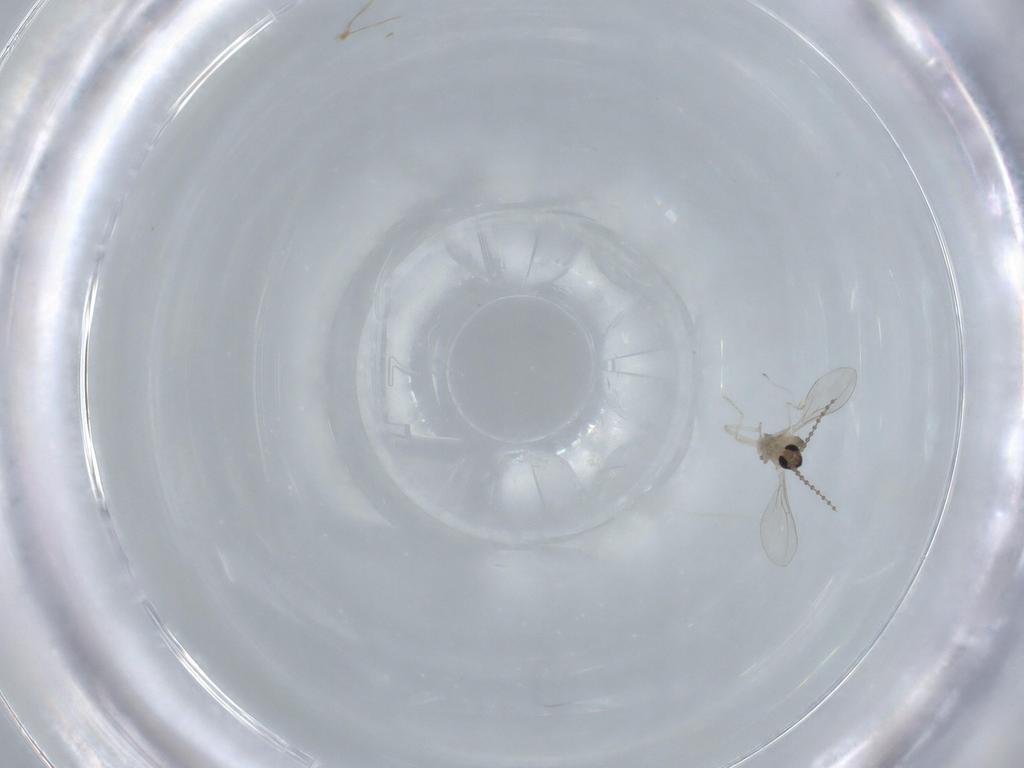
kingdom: Animalia
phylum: Arthropoda
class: Insecta
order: Diptera
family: Cecidomyiidae
